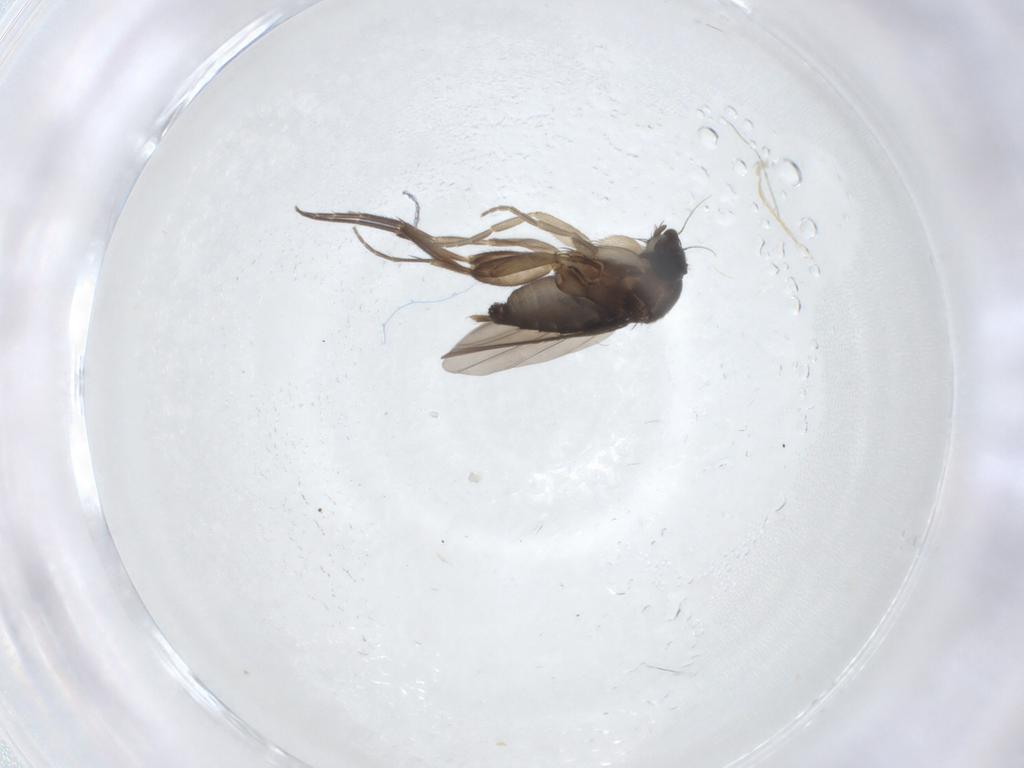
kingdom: Animalia
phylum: Arthropoda
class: Insecta
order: Diptera
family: Phoridae
